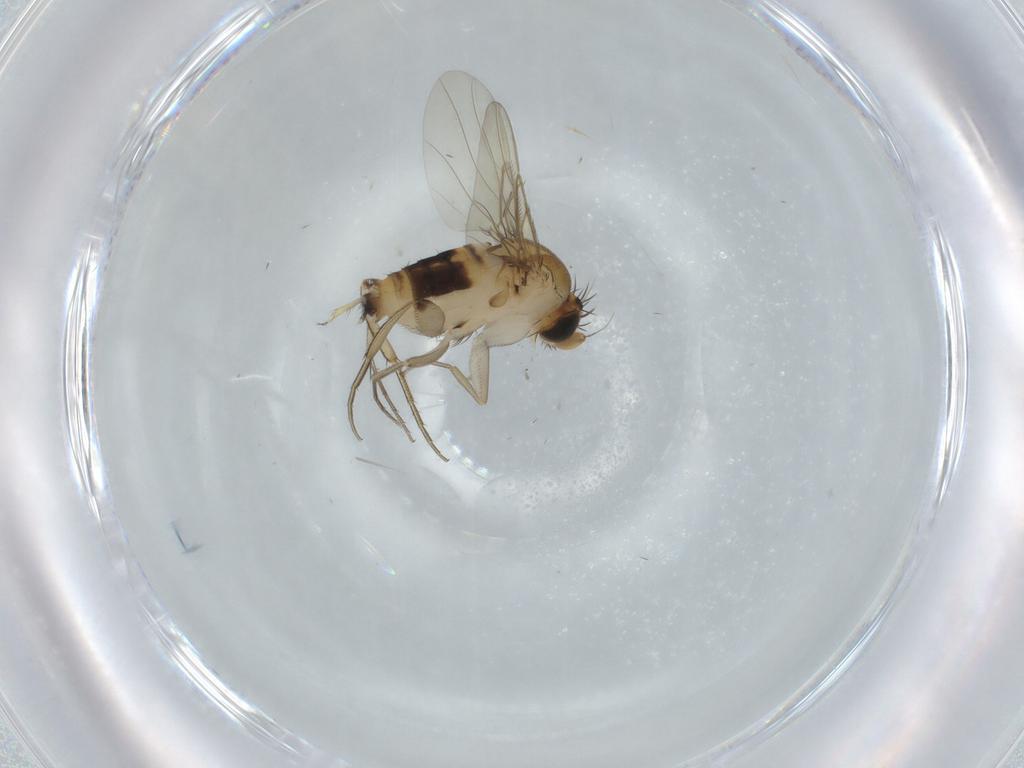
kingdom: Animalia
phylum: Arthropoda
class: Insecta
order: Diptera
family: Phoridae
